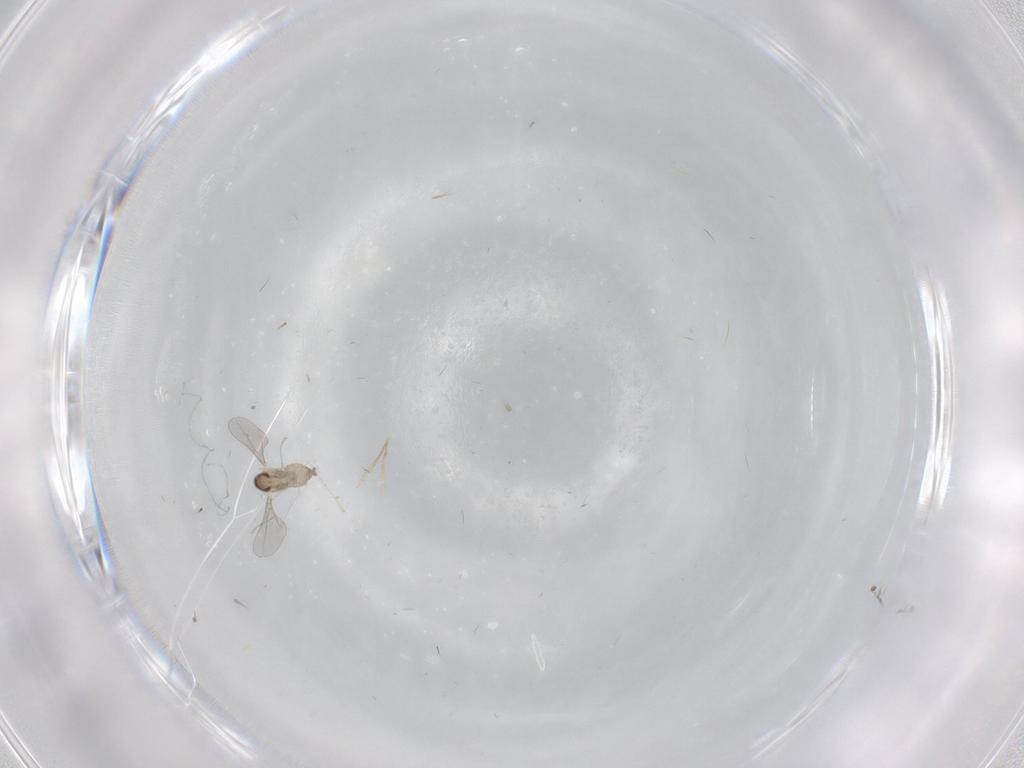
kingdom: Animalia
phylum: Arthropoda
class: Insecta
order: Diptera
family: Cecidomyiidae
